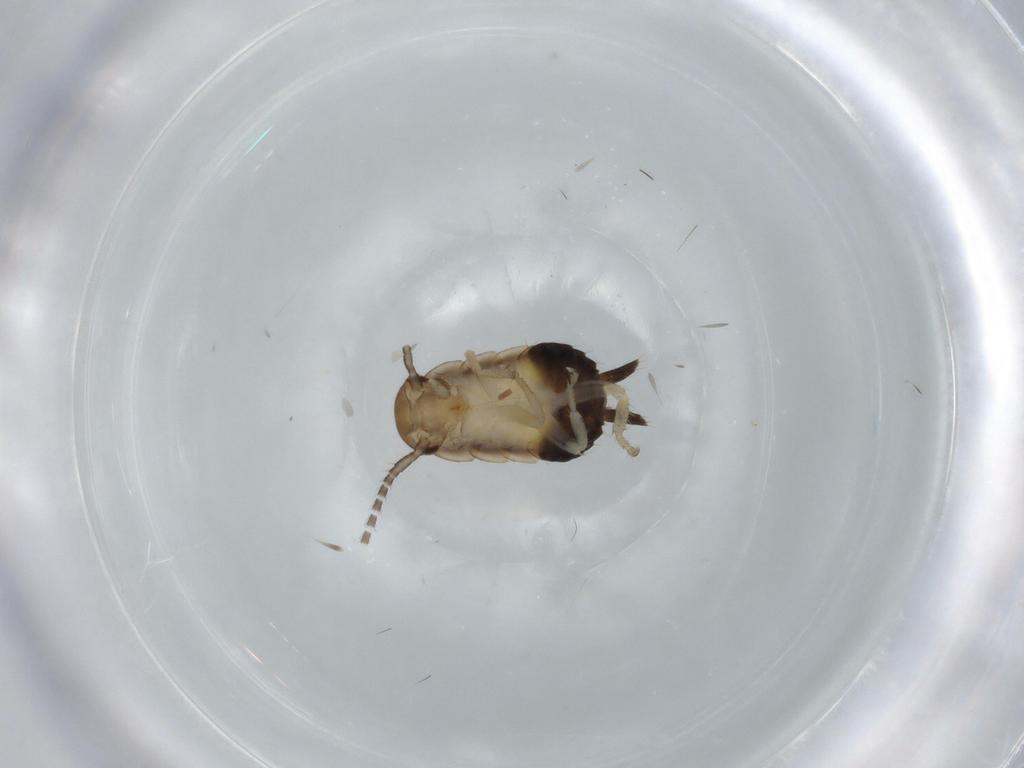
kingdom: Animalia
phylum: Arthropoda
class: Insecta
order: Blattodea
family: Ectobiidae
